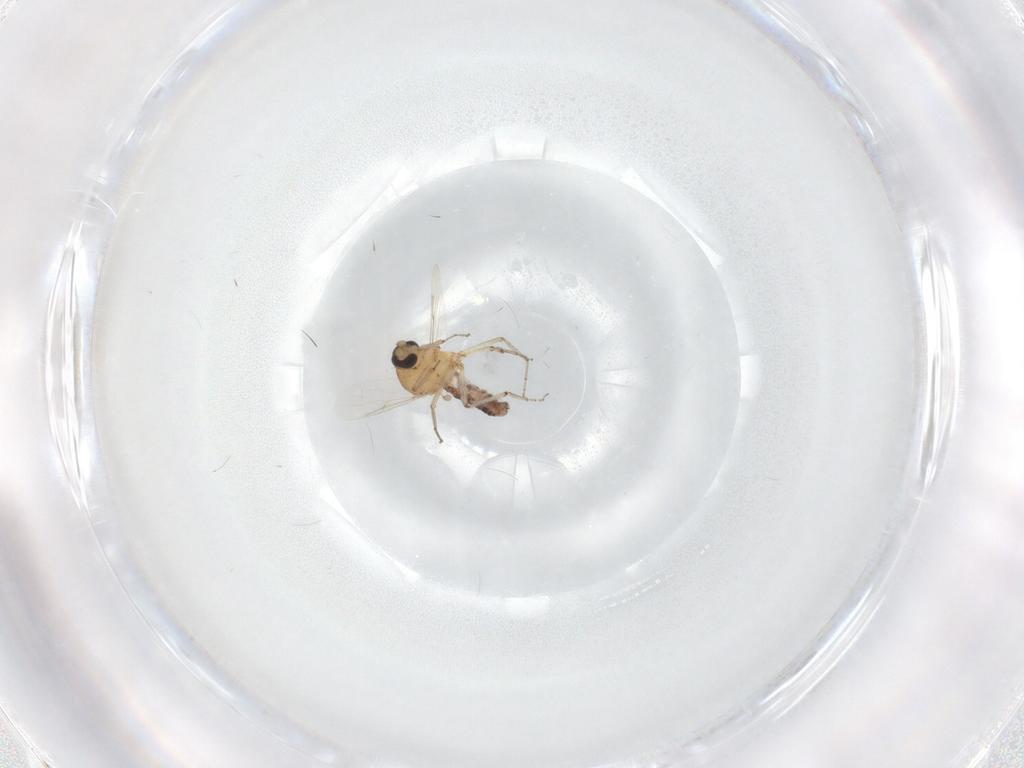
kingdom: Animalia
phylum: Arthropoda
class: Insecta
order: Diptera
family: Ceratopogonidae
